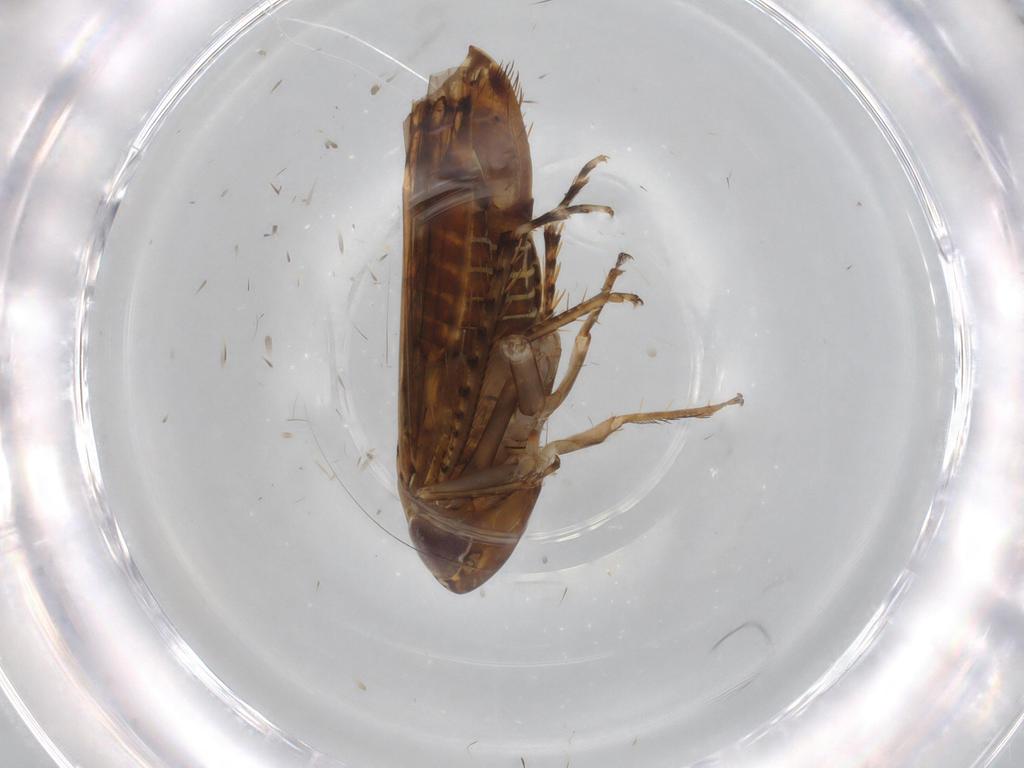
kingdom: Animalia
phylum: Arthropoda
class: Insecta
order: Hemiptera
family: Cicadellidae
